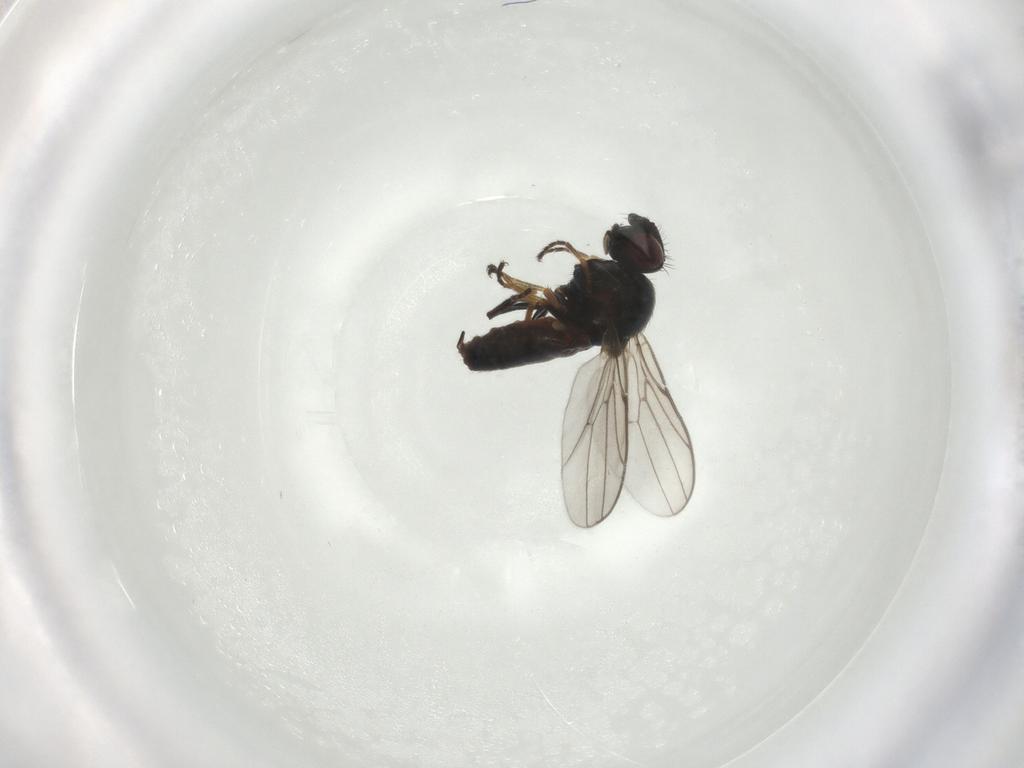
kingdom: Animalia
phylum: Arthropoda
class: Insecta
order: Diptera
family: Chloropidae
